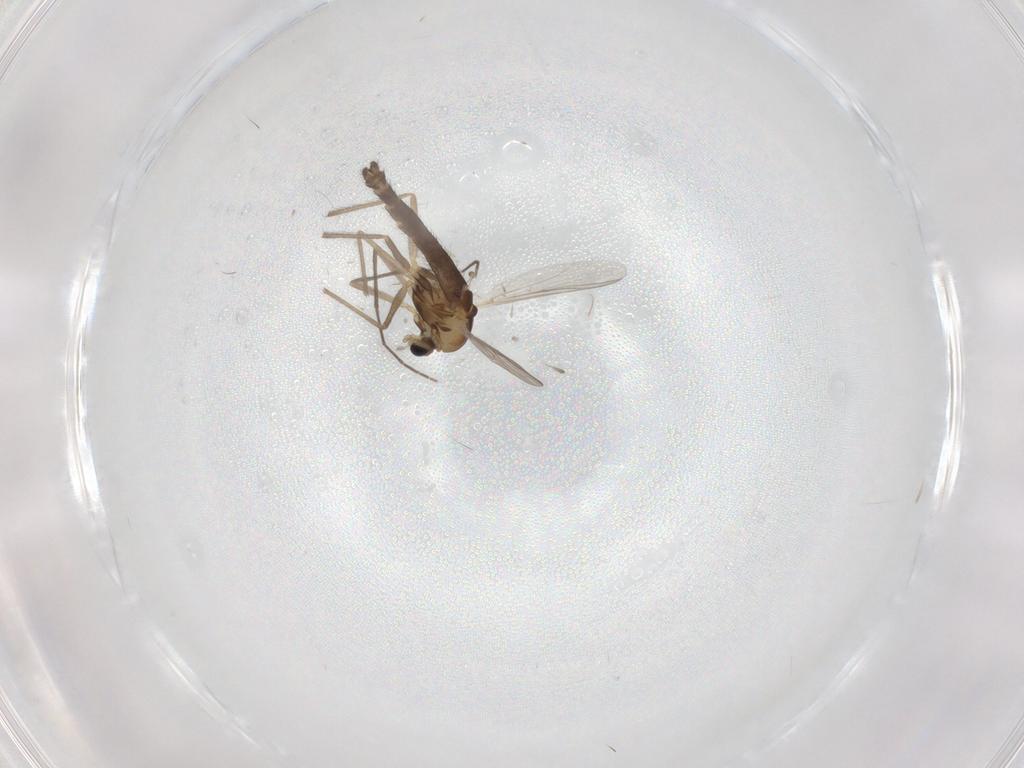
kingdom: Animalia
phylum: Arthropoda
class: Insecta
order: Diptera
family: Chironomidae
